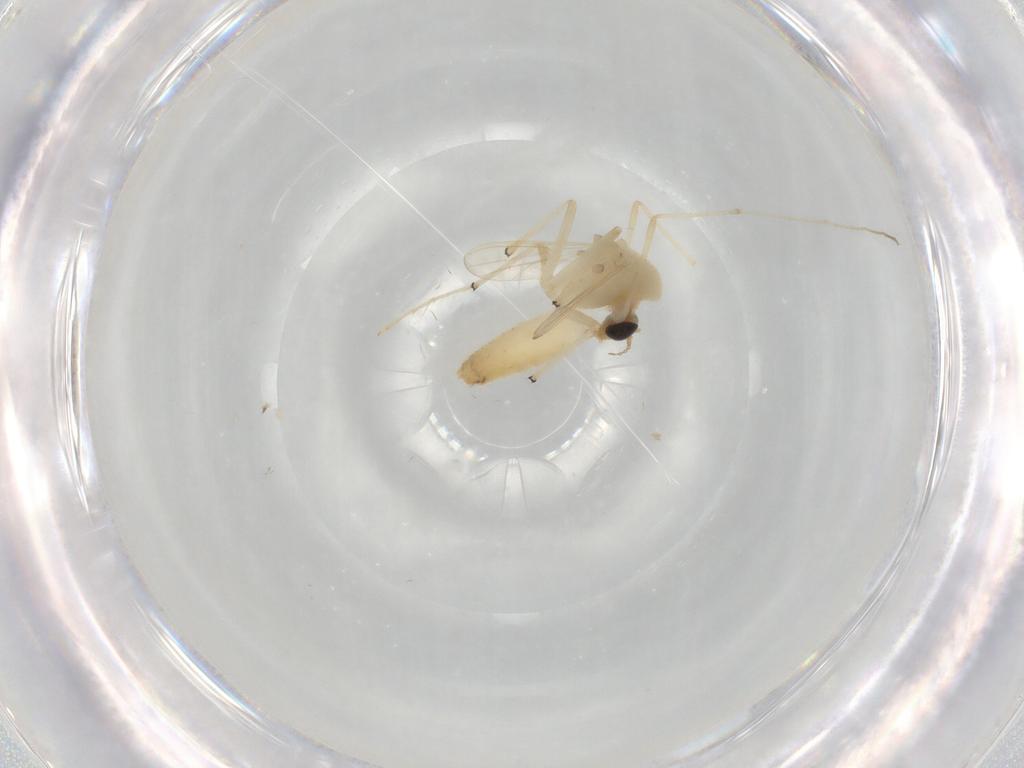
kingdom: Animalia
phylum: Arthropoda
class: Insecta
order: Diptera
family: Chironomidae
